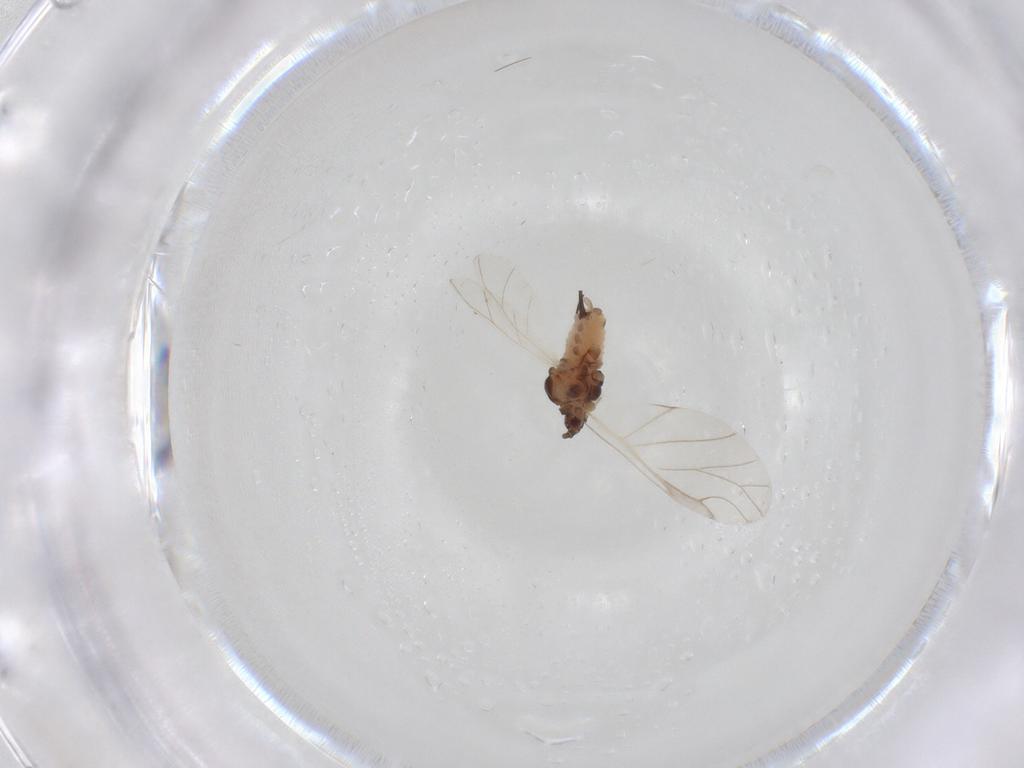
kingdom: Animalia
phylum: Arthropoda
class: Insecta
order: Hemiptera
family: Aphididae
